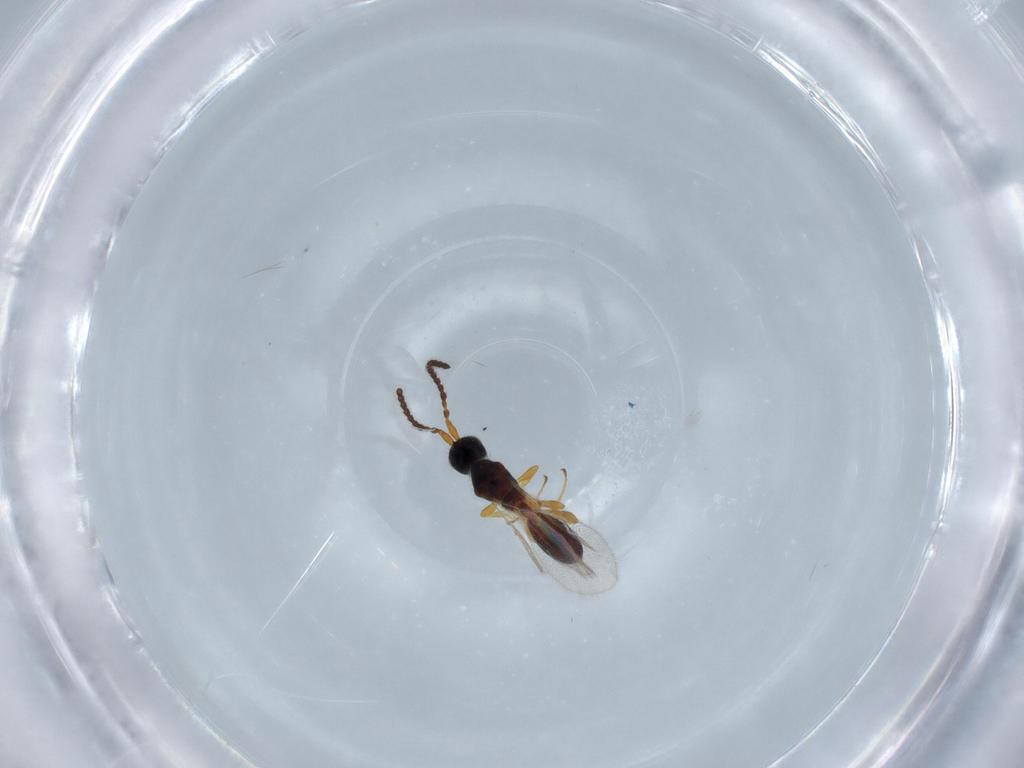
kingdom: Animalia
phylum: Arthropoda
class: Insecta
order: Hymenoptera
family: Diapriidae
